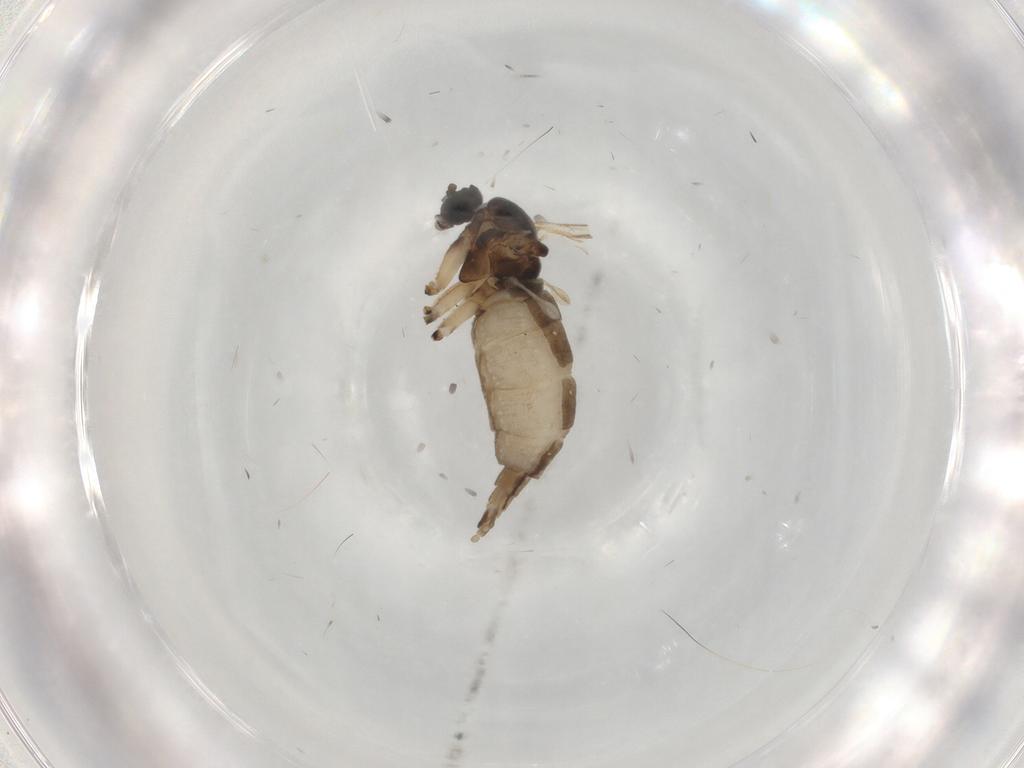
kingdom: Animalia
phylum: Arthropoda
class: Insecta
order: Diptera
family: Sciaridae
